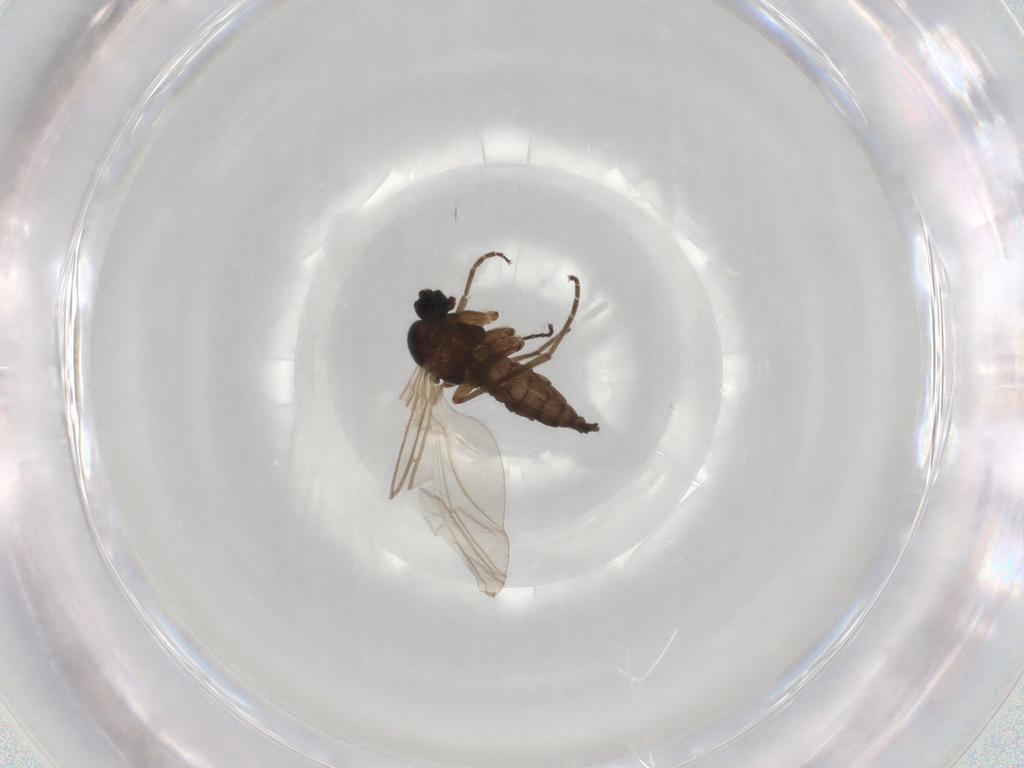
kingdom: Animalia
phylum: Arthropoda
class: Insecta
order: Diptera
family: Sciaridae
